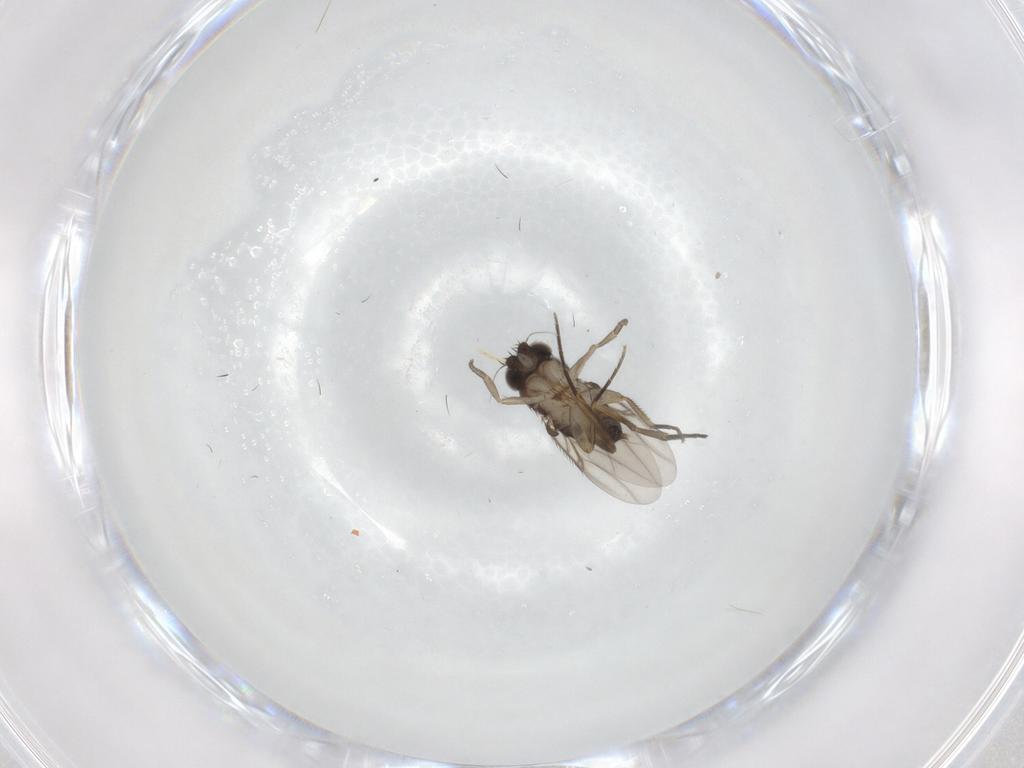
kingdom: Animalia
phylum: Arthropoda
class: Insecta
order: Diptera
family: Phoridae
